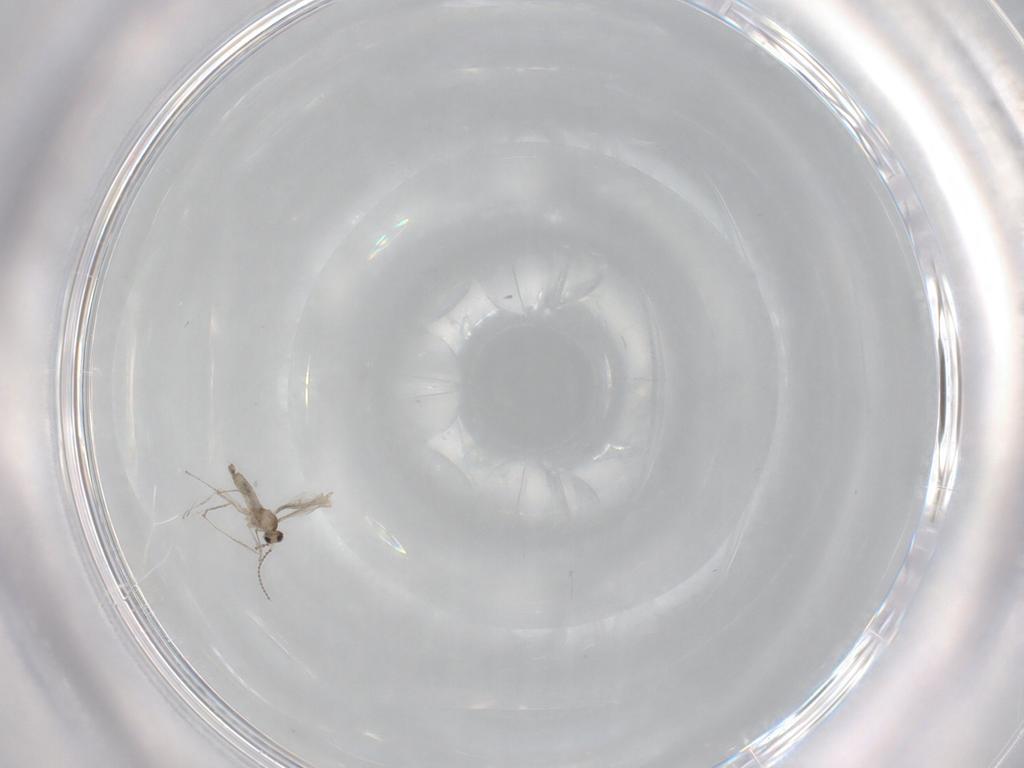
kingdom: Animalia
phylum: Arthropoda
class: Insecta
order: Diptera
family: Cecidomyiidae
